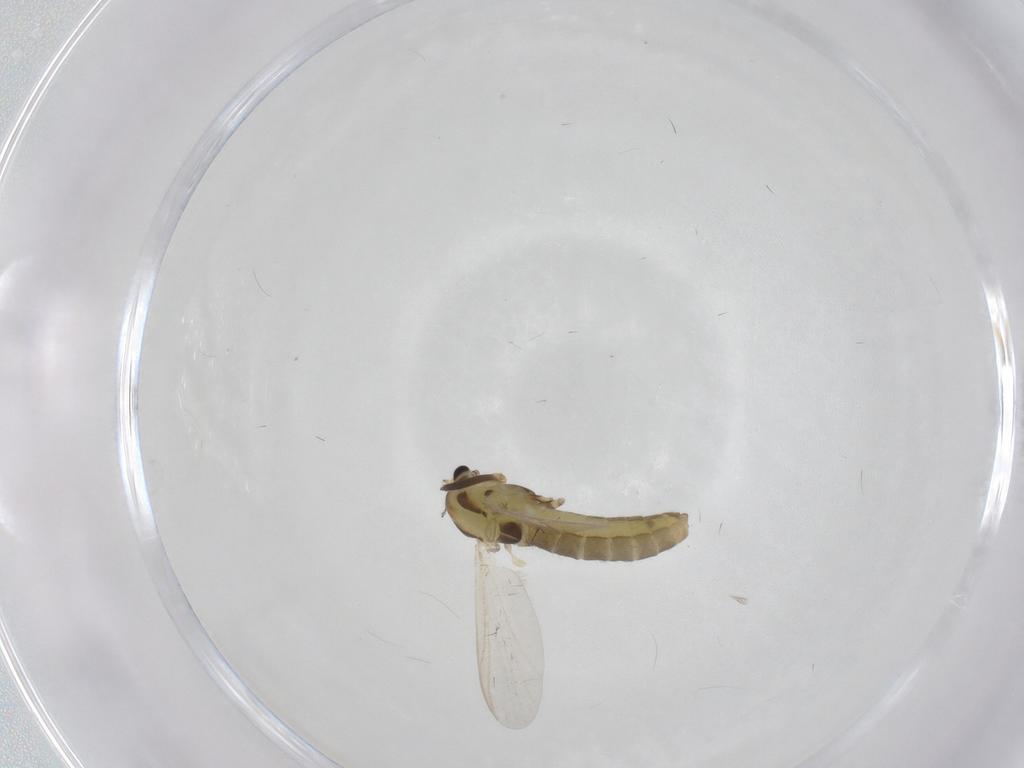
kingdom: Animalia
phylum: Arthropoda
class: Insecta
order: Diptera
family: Chironomidae
